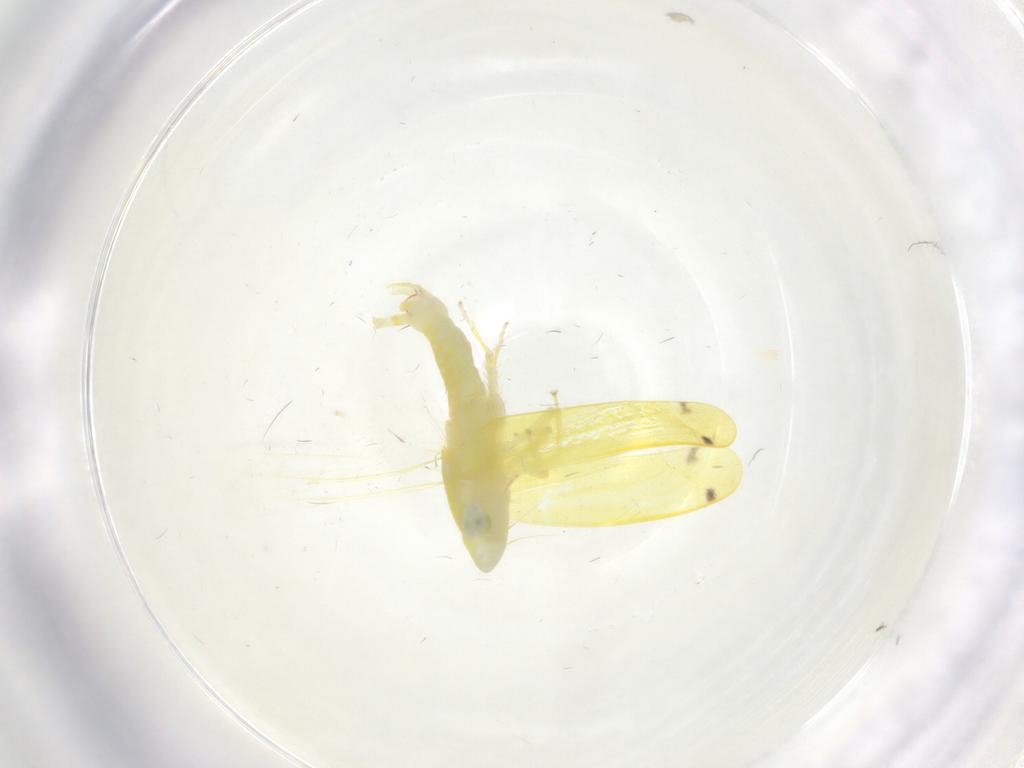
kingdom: Animalia
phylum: Arthropoda
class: Insecta
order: Hemiptera
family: Cicadellidae
